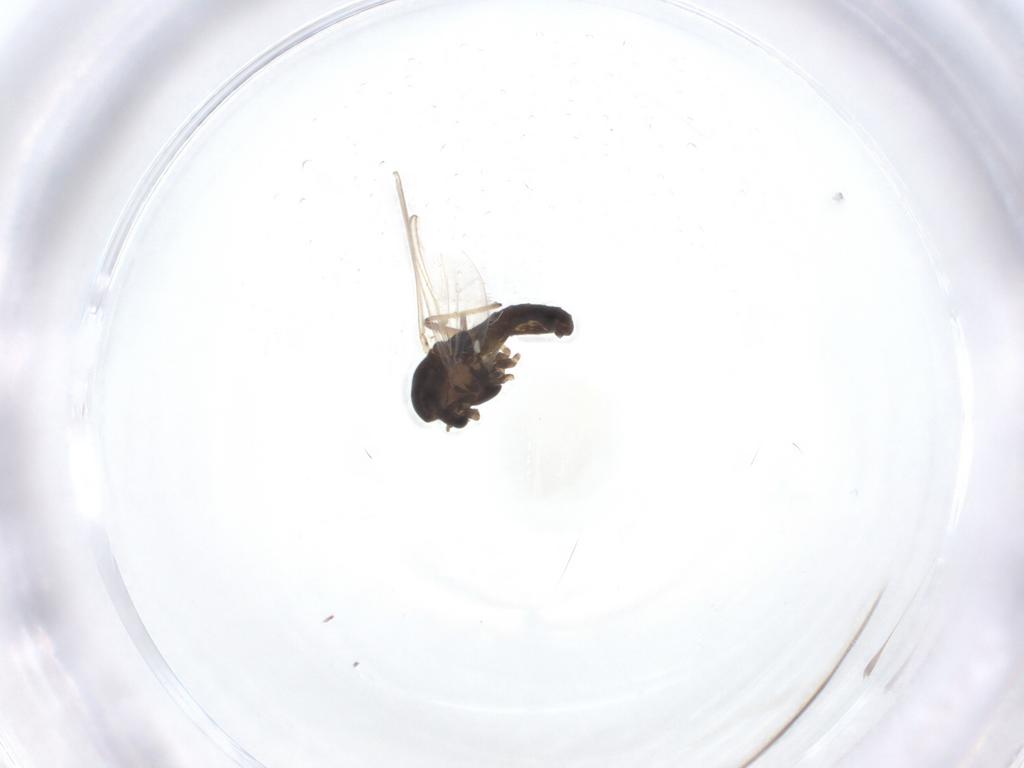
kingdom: Animalia
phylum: Arthropoda
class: Insecta
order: Diptera
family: Chironomidae
